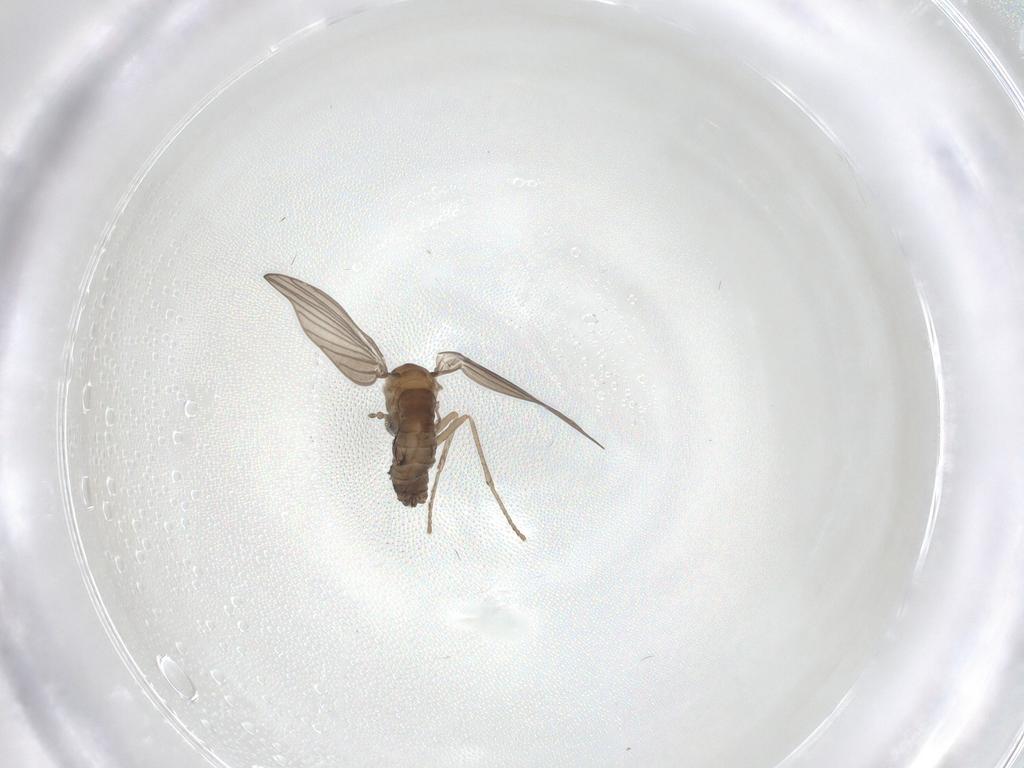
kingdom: Animalia
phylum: Arthropoda
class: Insecta
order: Diptera
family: Psychodidae
